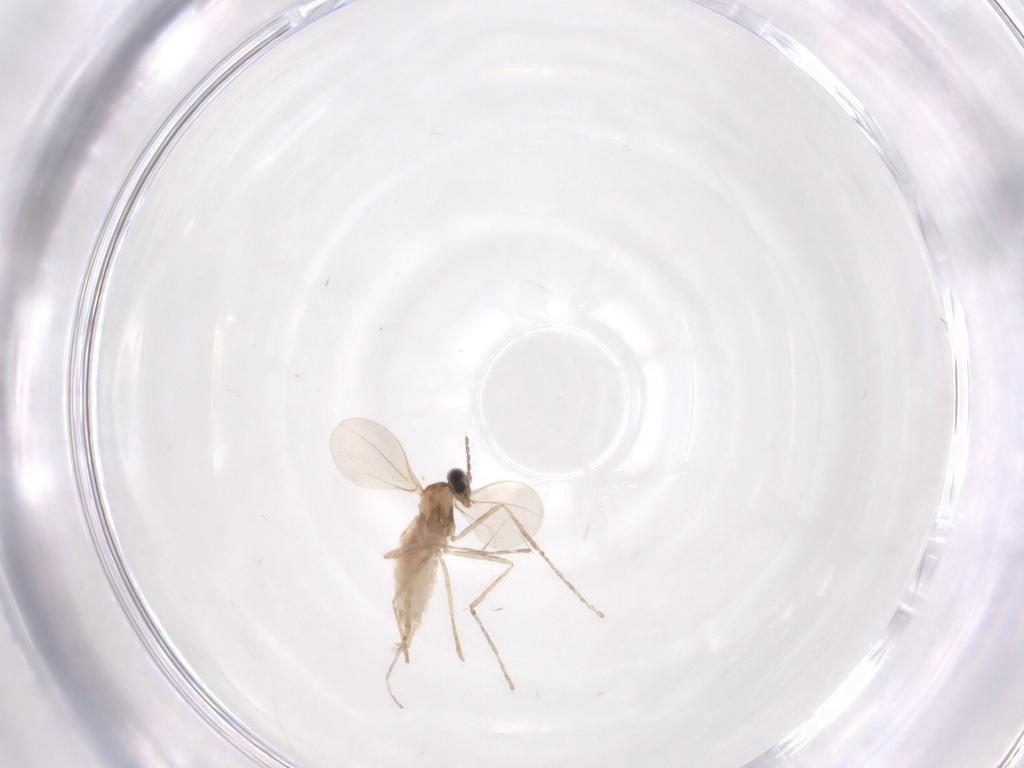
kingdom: Animalia
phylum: Arthropoda
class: Insecta
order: Diptera
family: Cecidomyiidae
